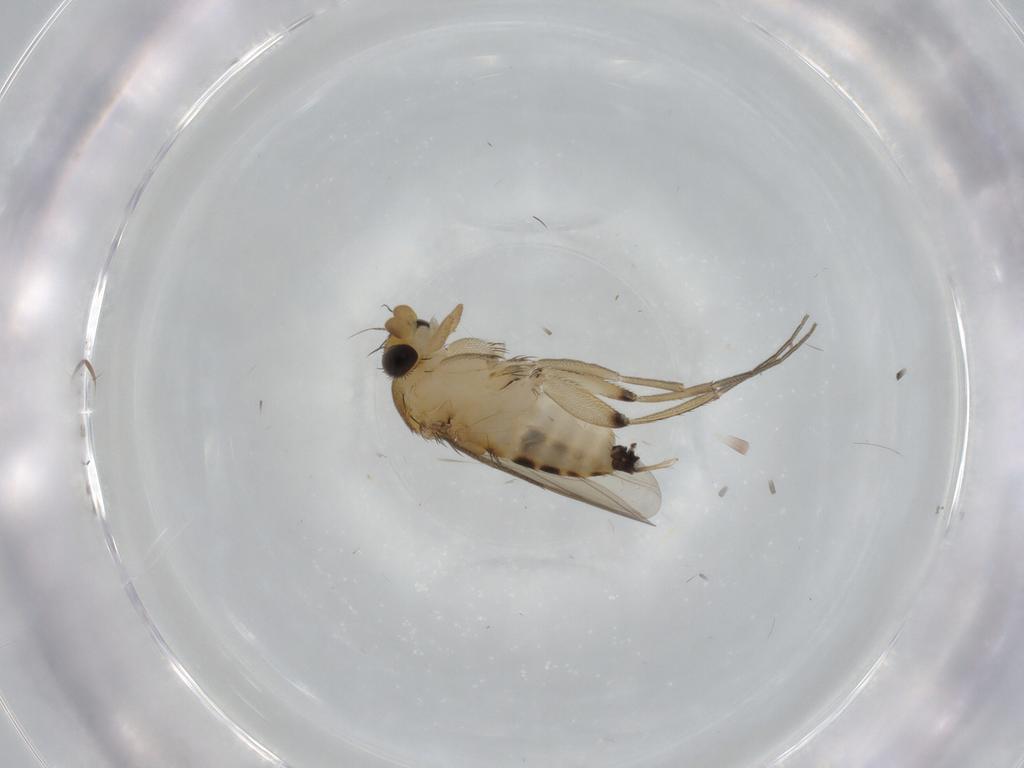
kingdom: Animalia
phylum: Arthropoda
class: Insecta
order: Diptera
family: Phoridae
